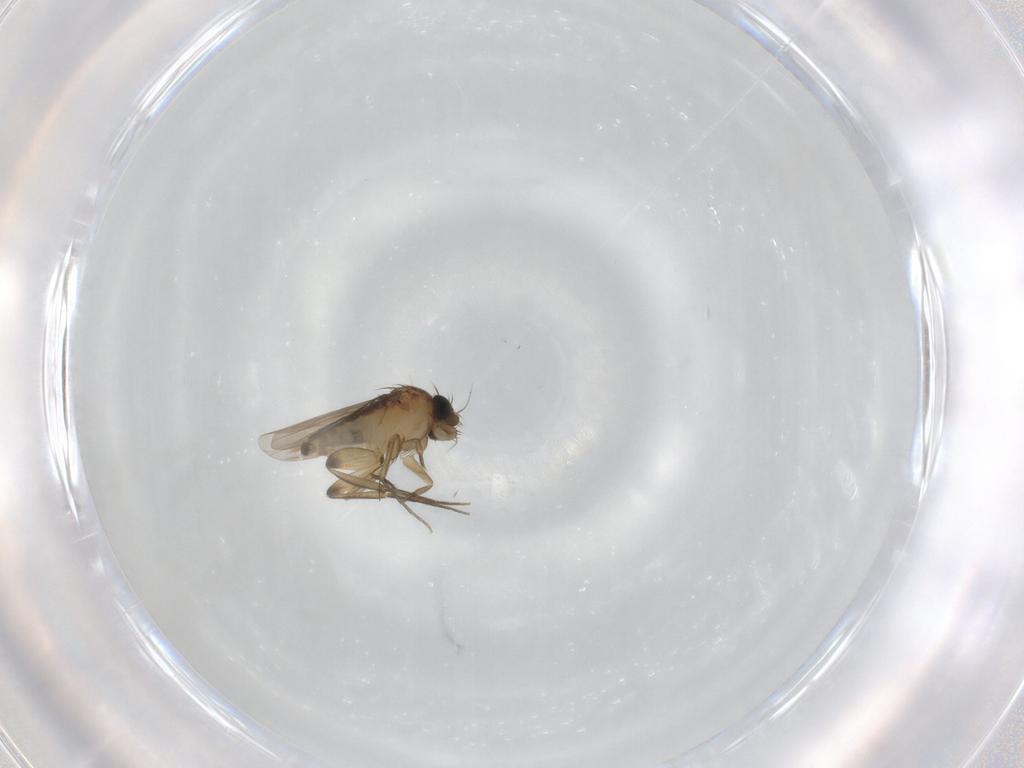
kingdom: Animalia
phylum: Arthropoda
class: Insecta
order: Diptera
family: Phoridae
